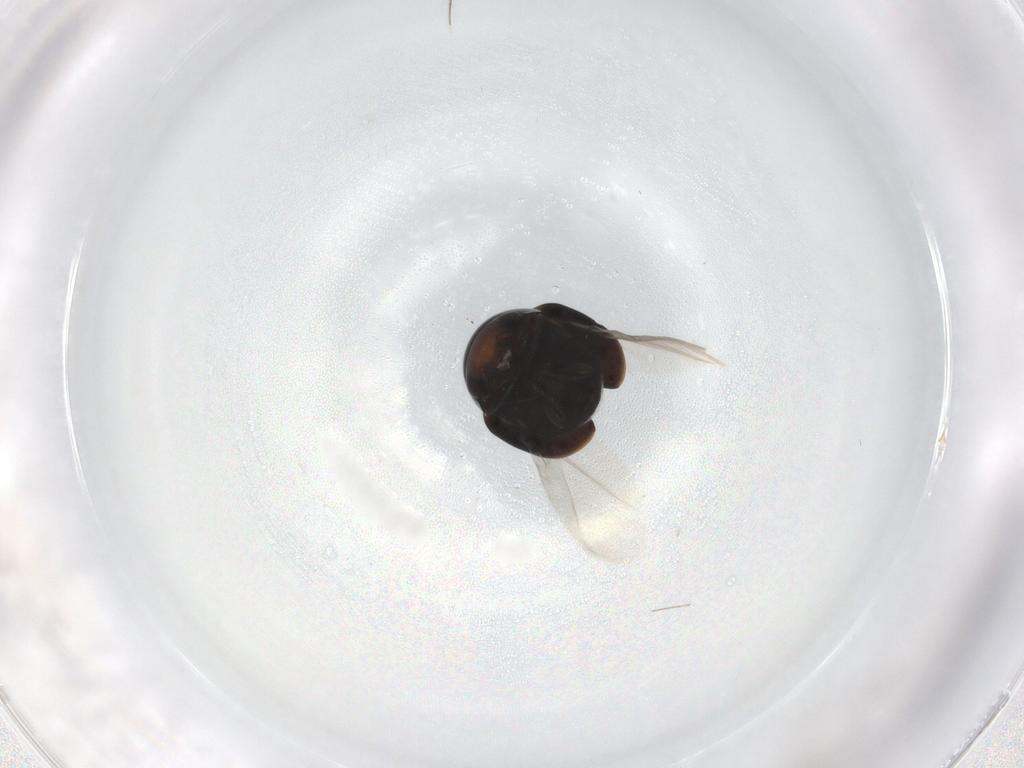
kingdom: Animalia
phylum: Arthropoda
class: Insecta
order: Coleoptera
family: Cybocephalidae
